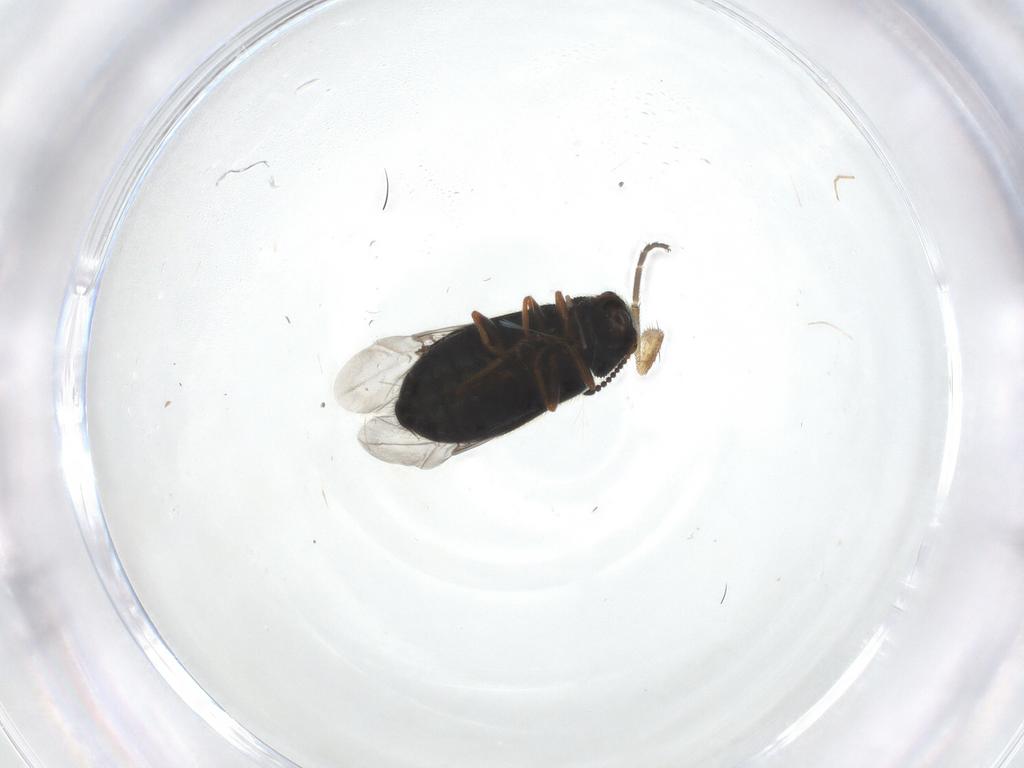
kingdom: Animalia
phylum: Arthropoda
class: Insecta
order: Coleoptera
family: Melyridae
